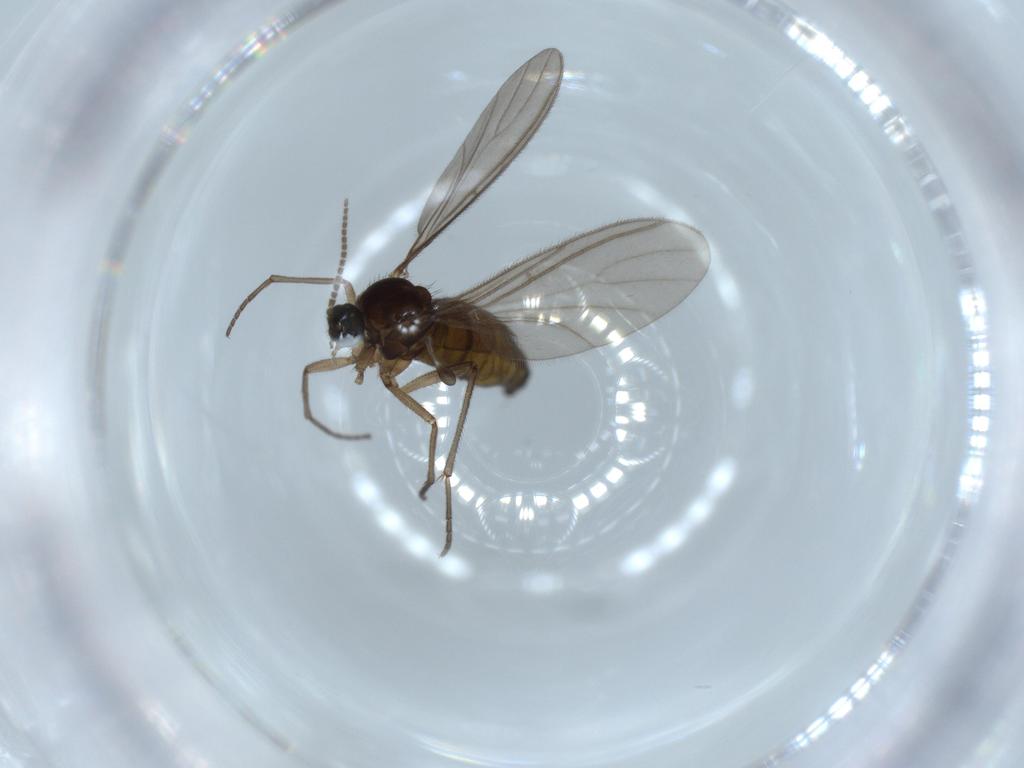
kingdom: Animalia
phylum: Arthropoda
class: Insecta
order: Diptera
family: Sciaridae
